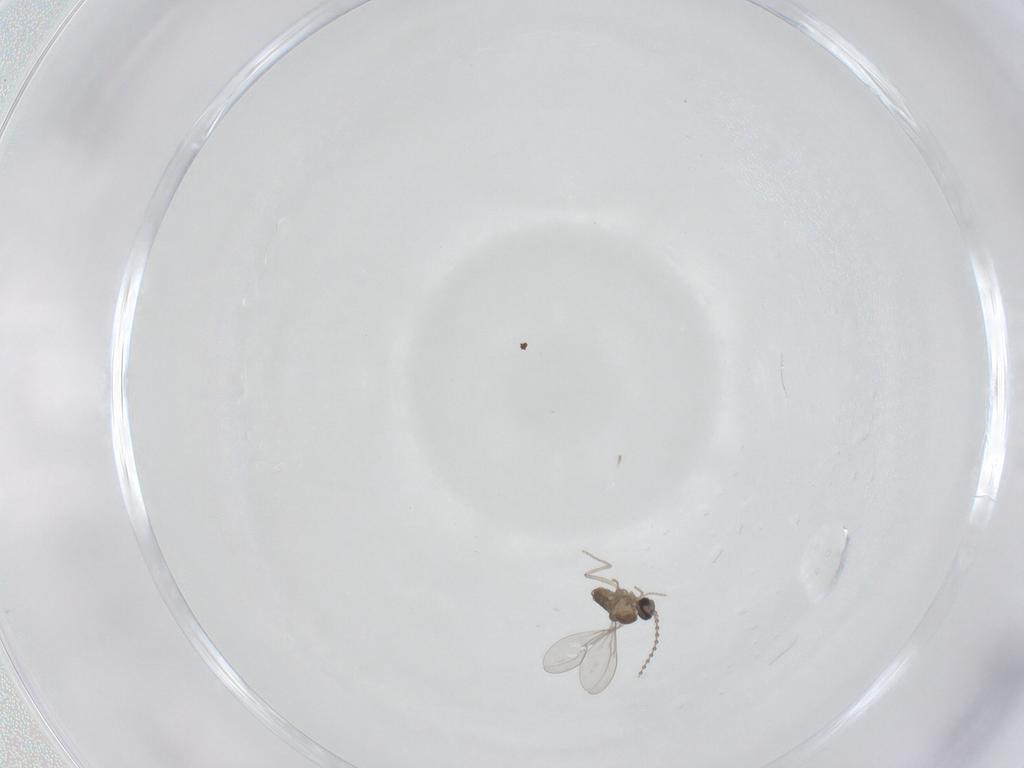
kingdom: Animalia
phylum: Arthropoda
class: Insecta
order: Diptera
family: Cecidomyiidae
